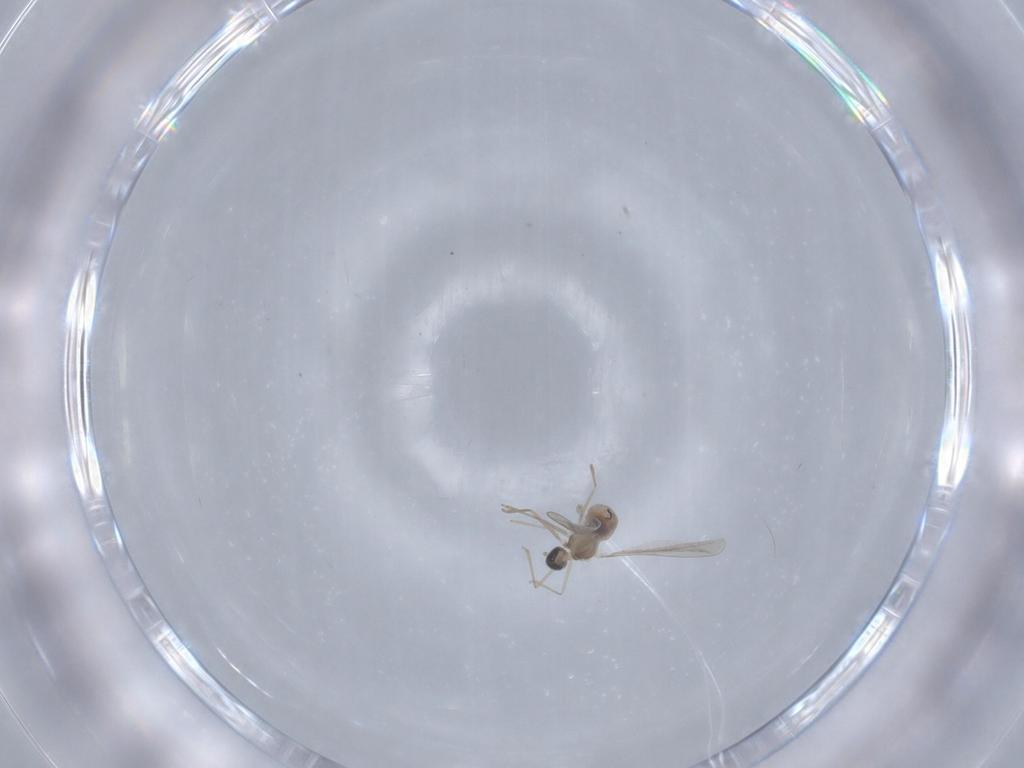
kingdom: Animalia
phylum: Arthropoda
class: Insecta
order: Diptera
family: Cecidomyiidae
